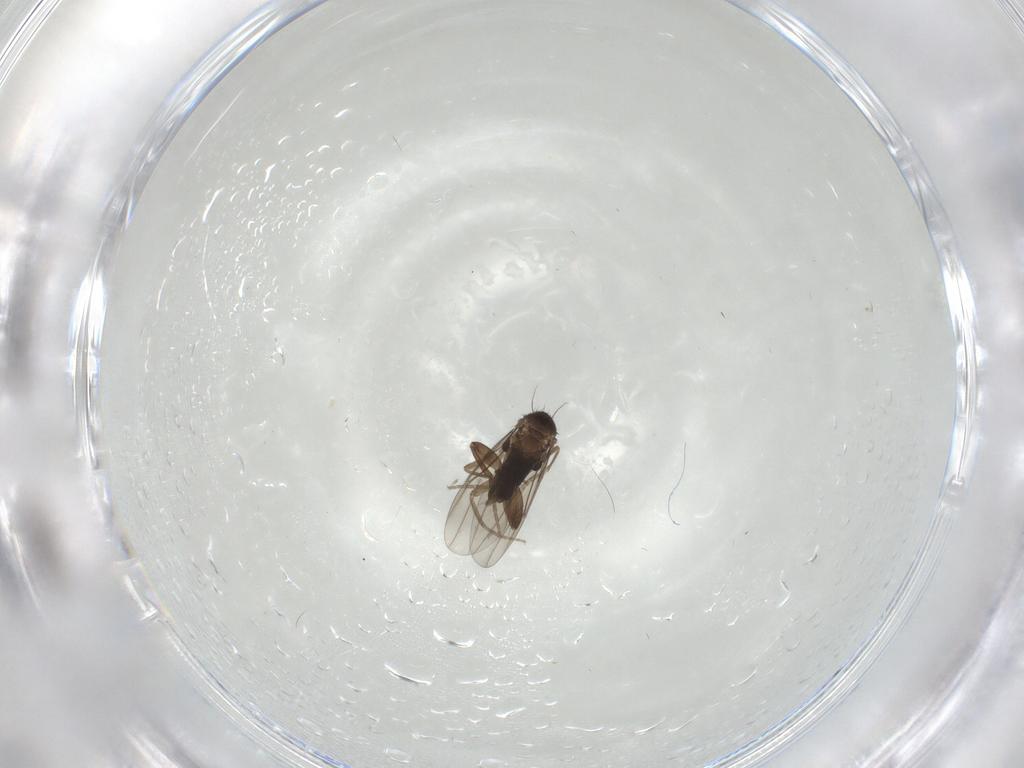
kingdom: Animalia
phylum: Arthropoda
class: Insecta
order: Diptera
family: Phoridae
